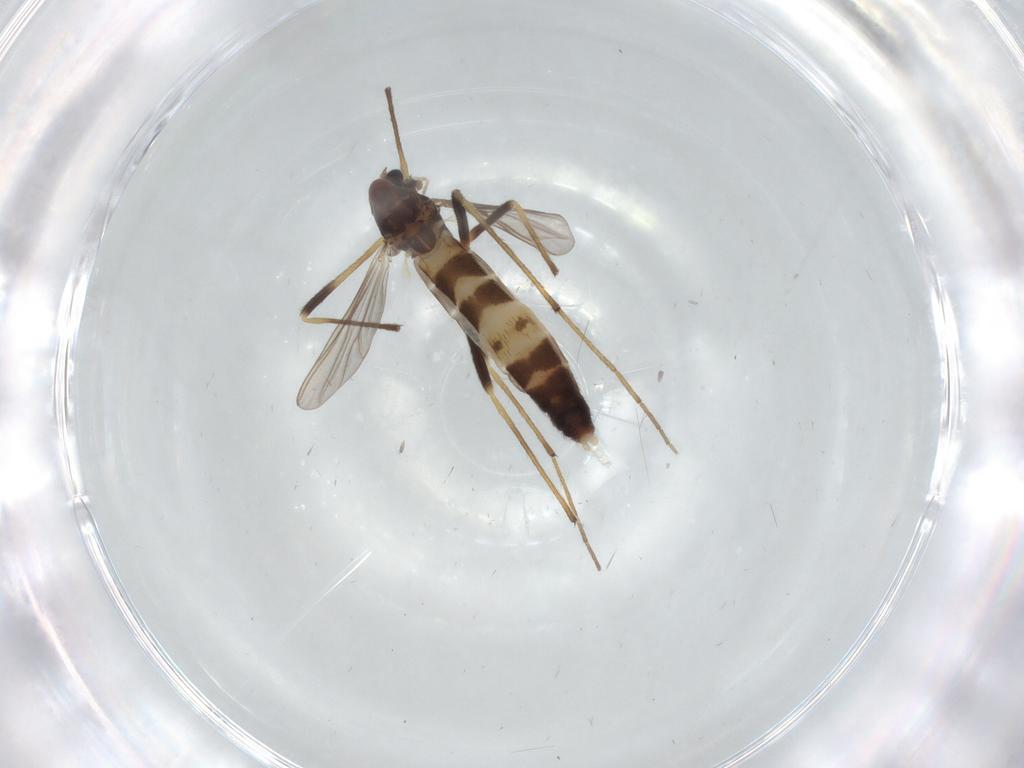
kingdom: Animalia
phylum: Arthropoda
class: Insecta
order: Diptera
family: Chironomidae
